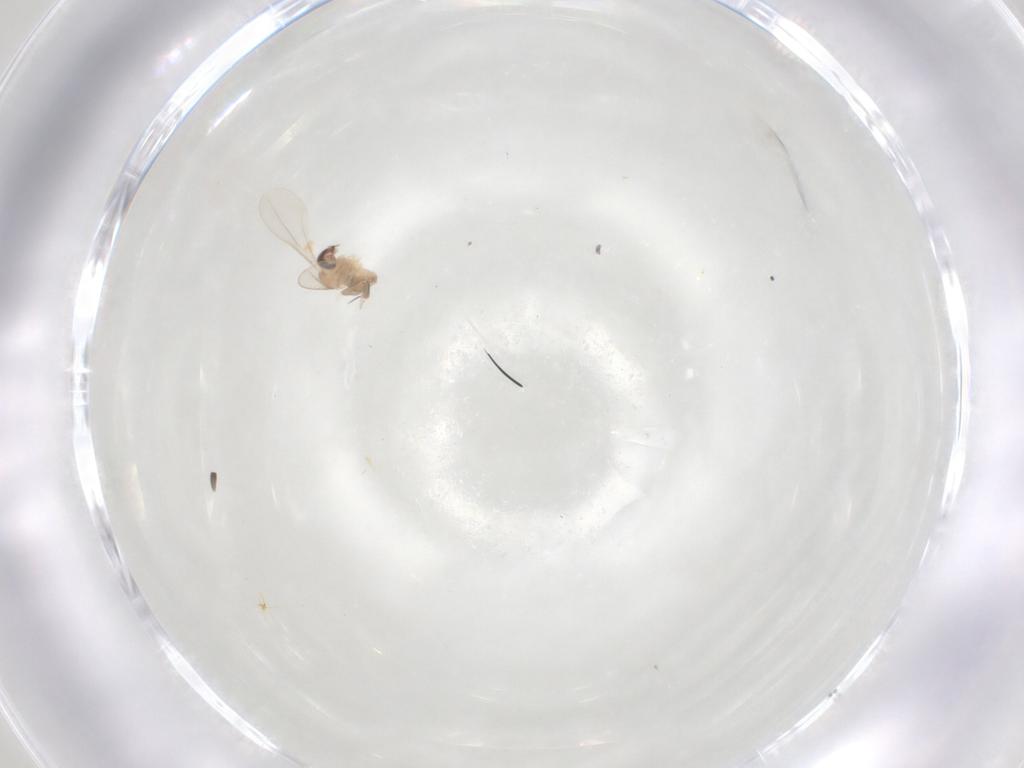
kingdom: Animalia
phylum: Arthropoda
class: Insecta
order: Diptera
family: Cecidomyiidae
